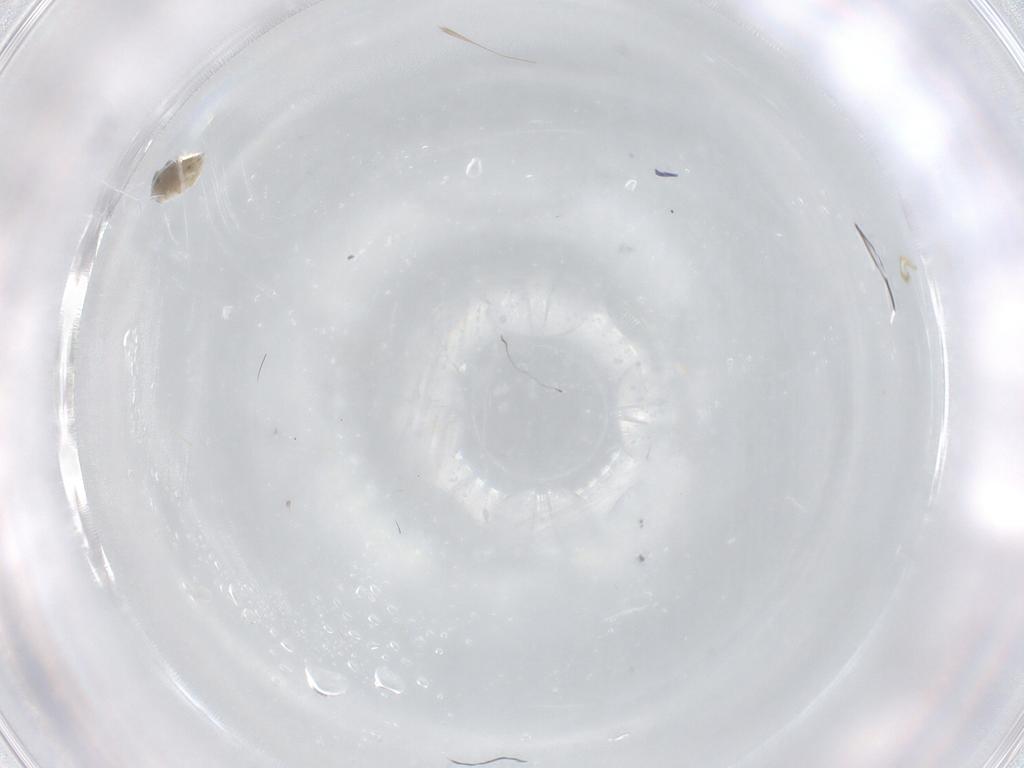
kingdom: Animalia
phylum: Arthropoda
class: Insecta
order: Diptera
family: Cecidomyiidae
